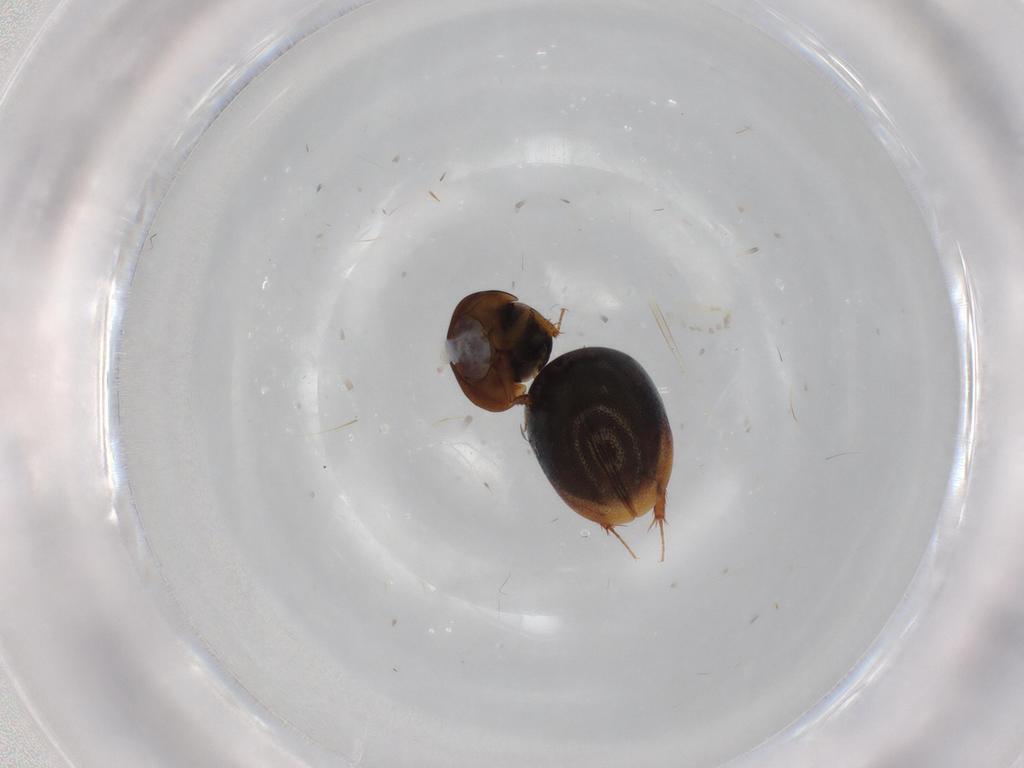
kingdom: Animalia
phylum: Arthropoda
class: Insecta
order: Coleoptera
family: Hydrophilidae
